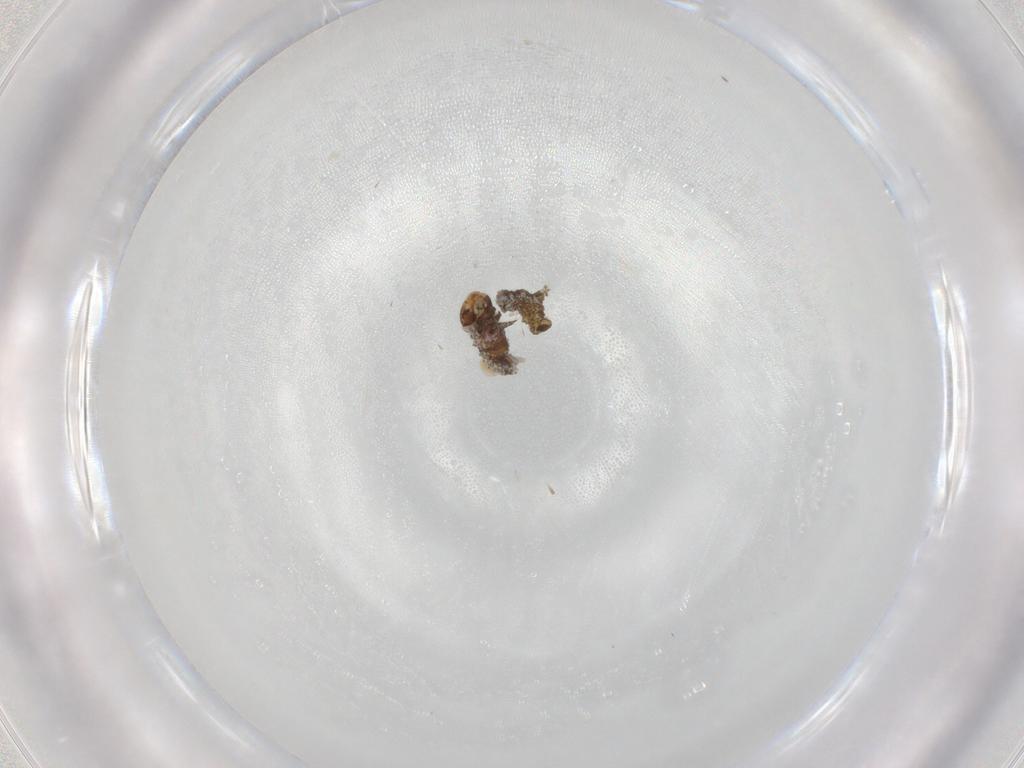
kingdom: Animalia
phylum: Arthropoda
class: Insecta
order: Lepidoptera
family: Geometridae
